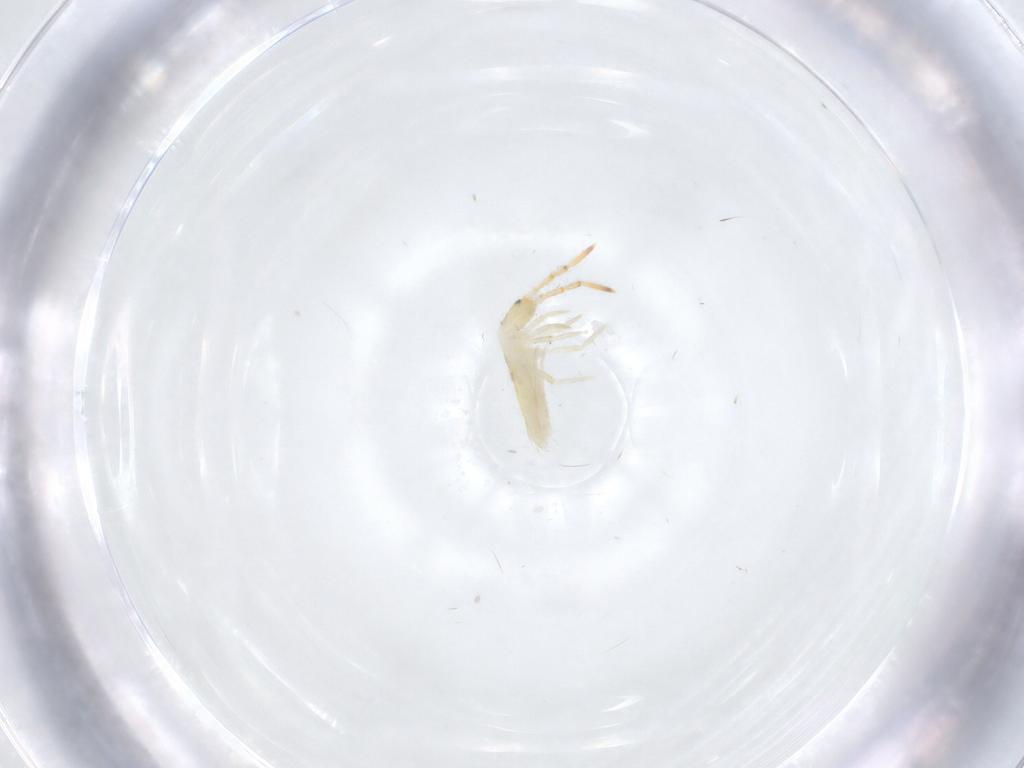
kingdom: Animalia
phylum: Arthropoda
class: Collembola
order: Entomobryomorpha
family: Entomobryidae
